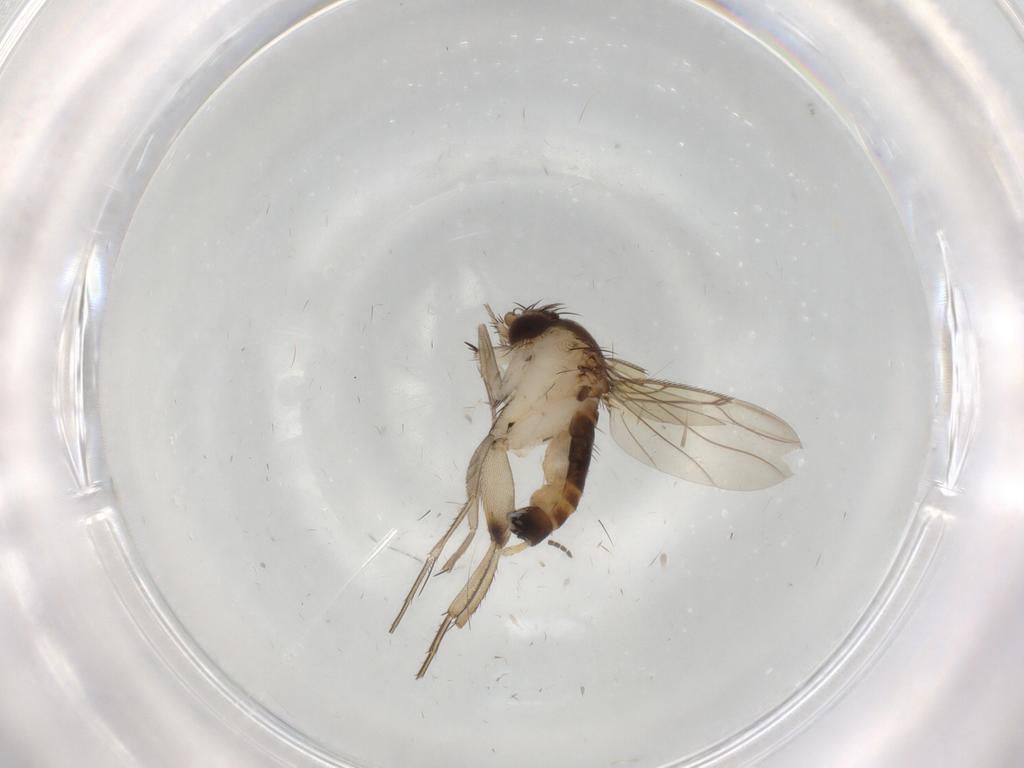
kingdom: Animalia
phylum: Arthropoda
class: Insecta
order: Diptera
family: Phoridae
